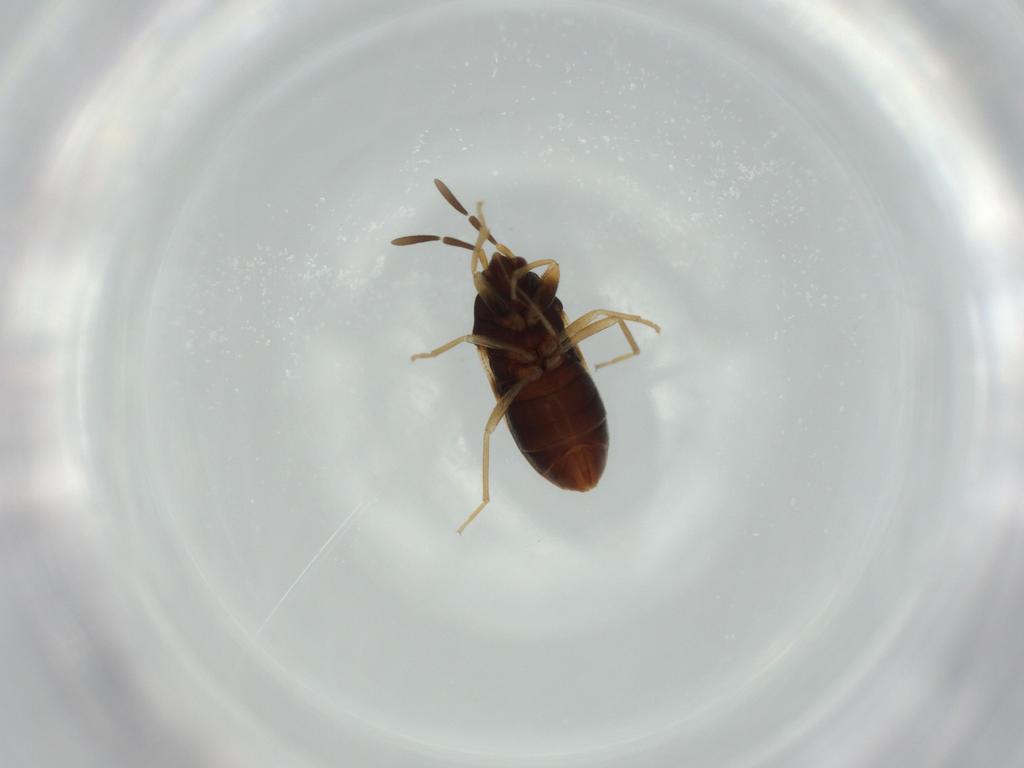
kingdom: Animalia
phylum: Arthropoda
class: Insecta
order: Hemiptera
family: Rhyparochromidae
